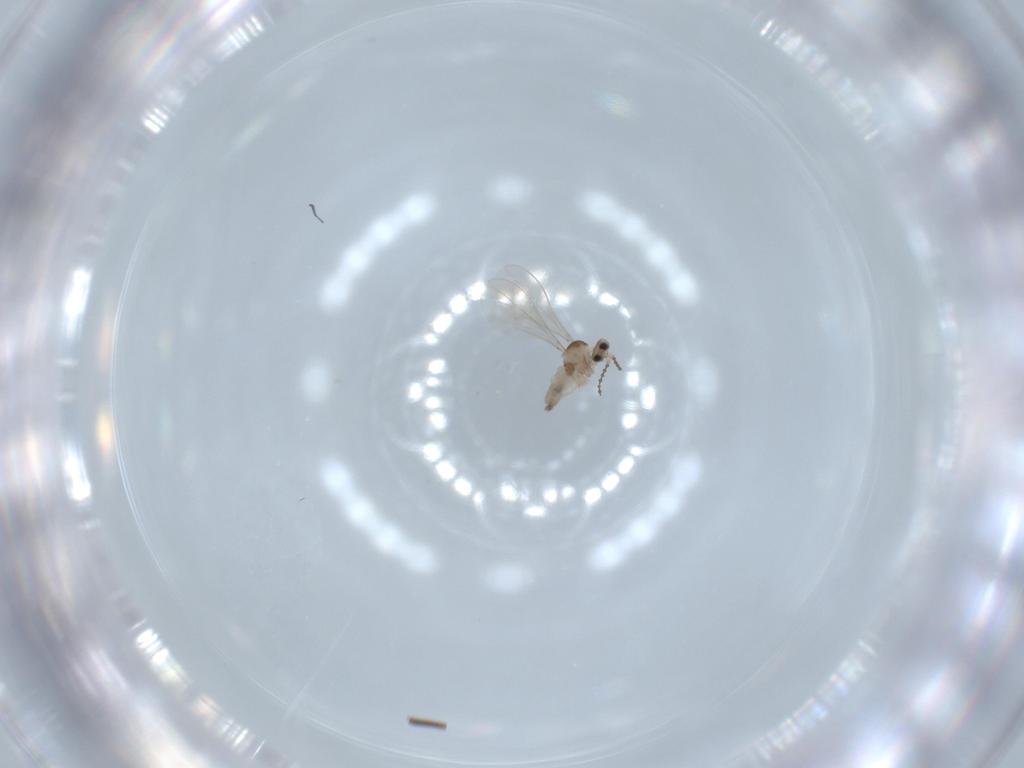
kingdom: Animalia
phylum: Arthropoda
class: Insecta
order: Diptera
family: Cecidomyiidae
